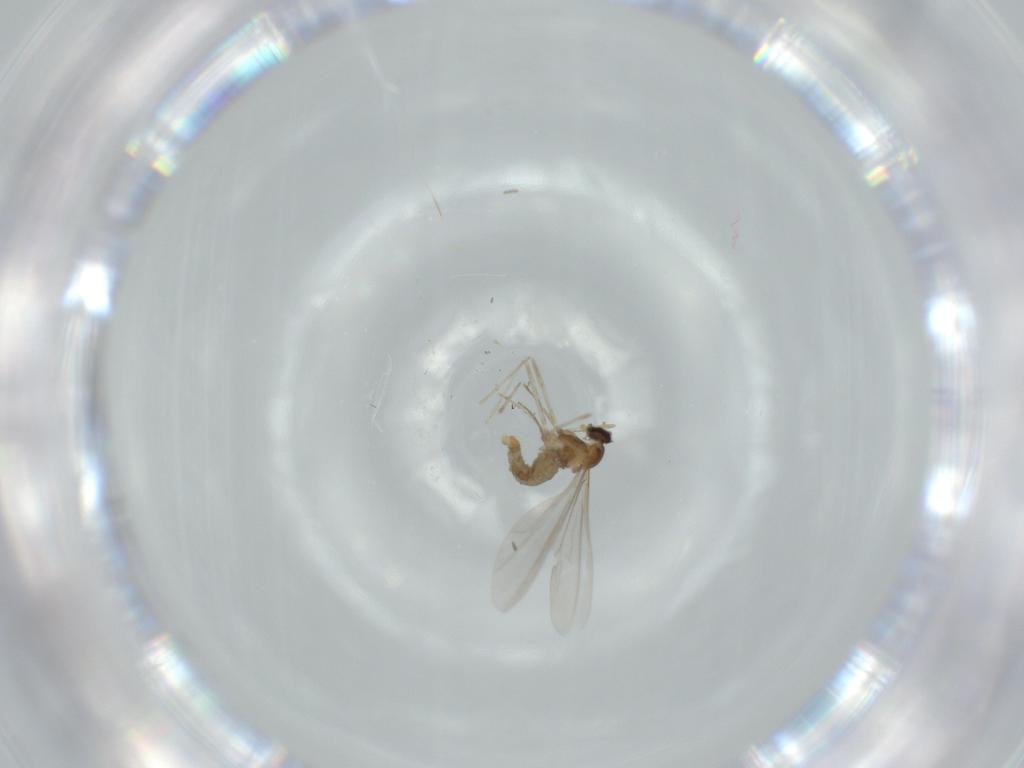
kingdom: Animalia
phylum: Arthropoda
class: Insecta
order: Diptera
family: Cecidomyiidae
